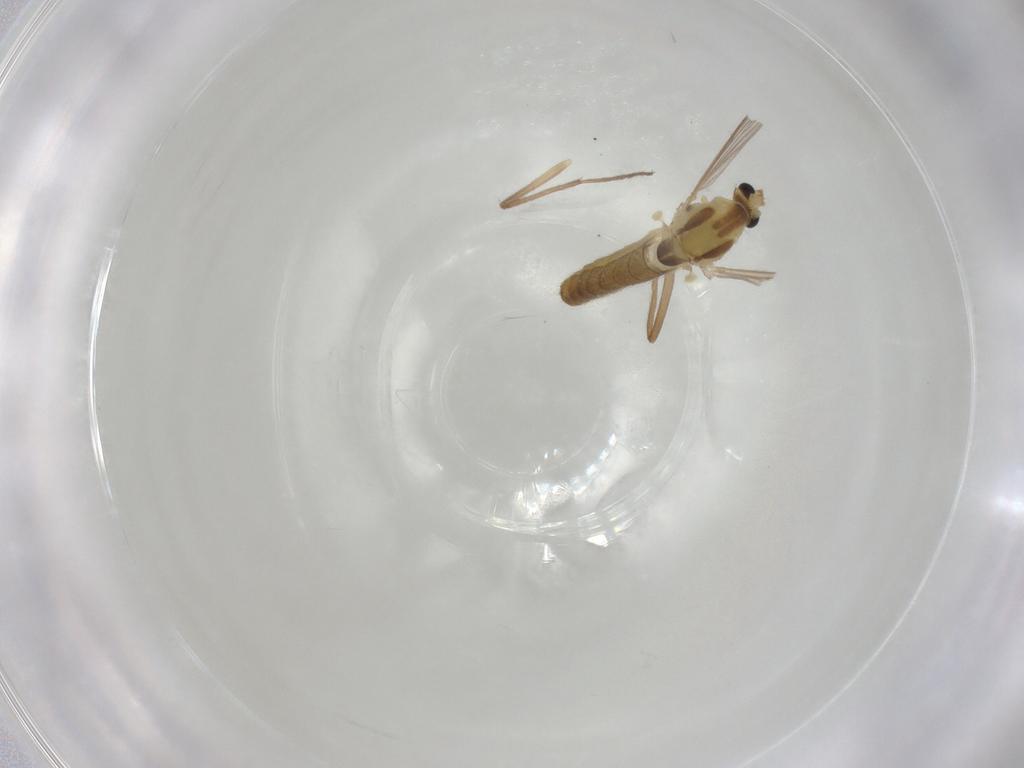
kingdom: Animalia
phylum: Arthropoda
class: Insecta
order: Diptera
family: Chironomidae
